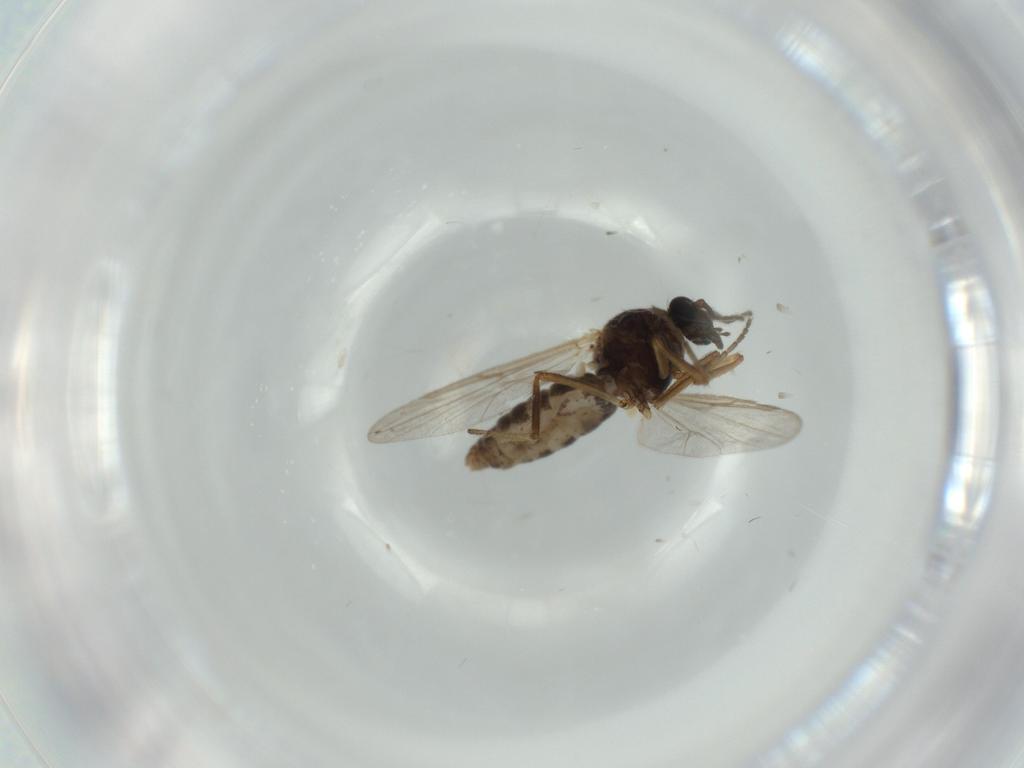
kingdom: Animalia
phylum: Arthropoda
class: Insecta
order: Diptera
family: Ceratopogonidae
